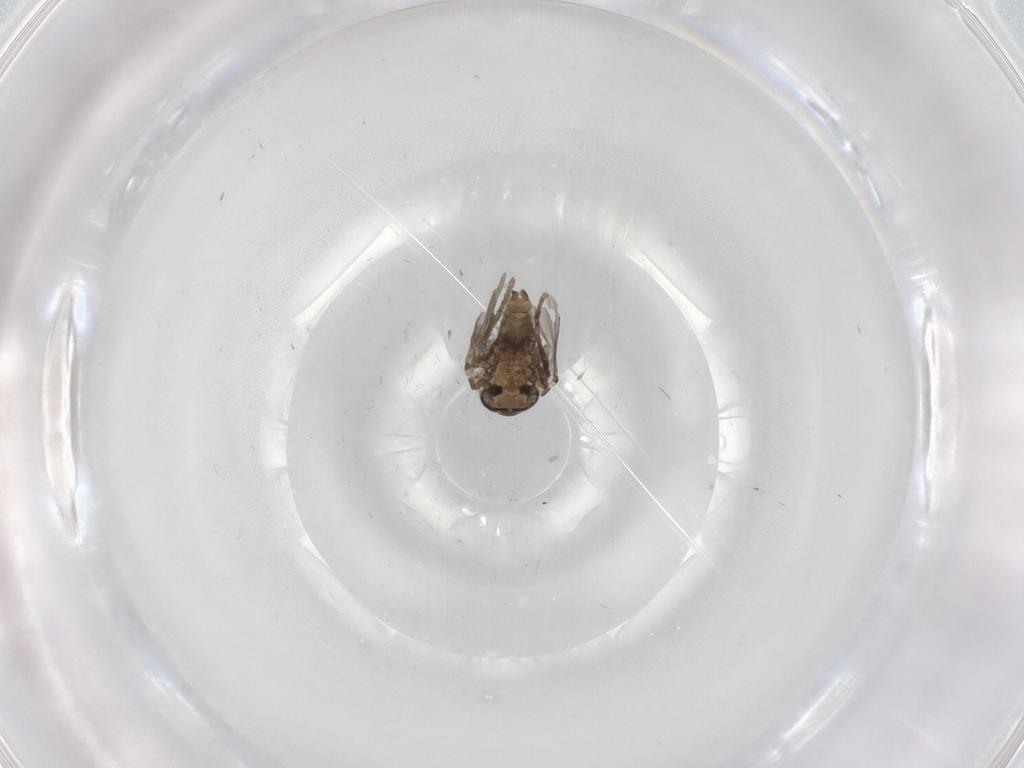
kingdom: Animalia
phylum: Arthropoda
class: Insecta
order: Diptera
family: Psychodidae
